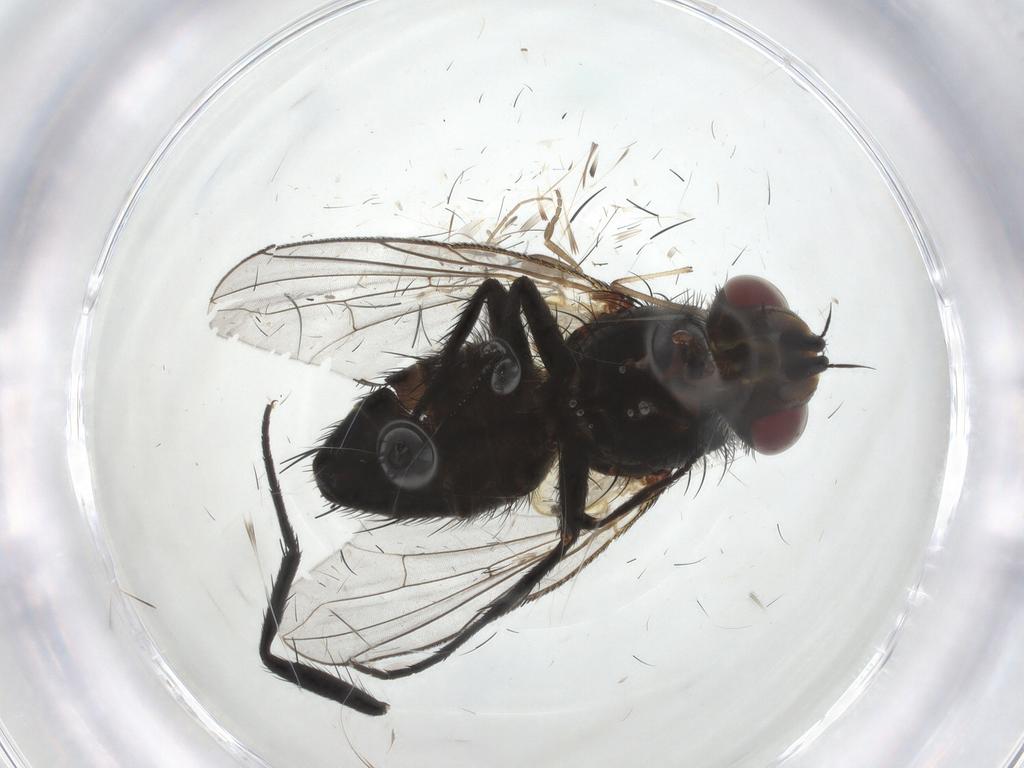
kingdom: Animalia
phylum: Arthropoda
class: Insecta
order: Diptera
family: Tachinidae
